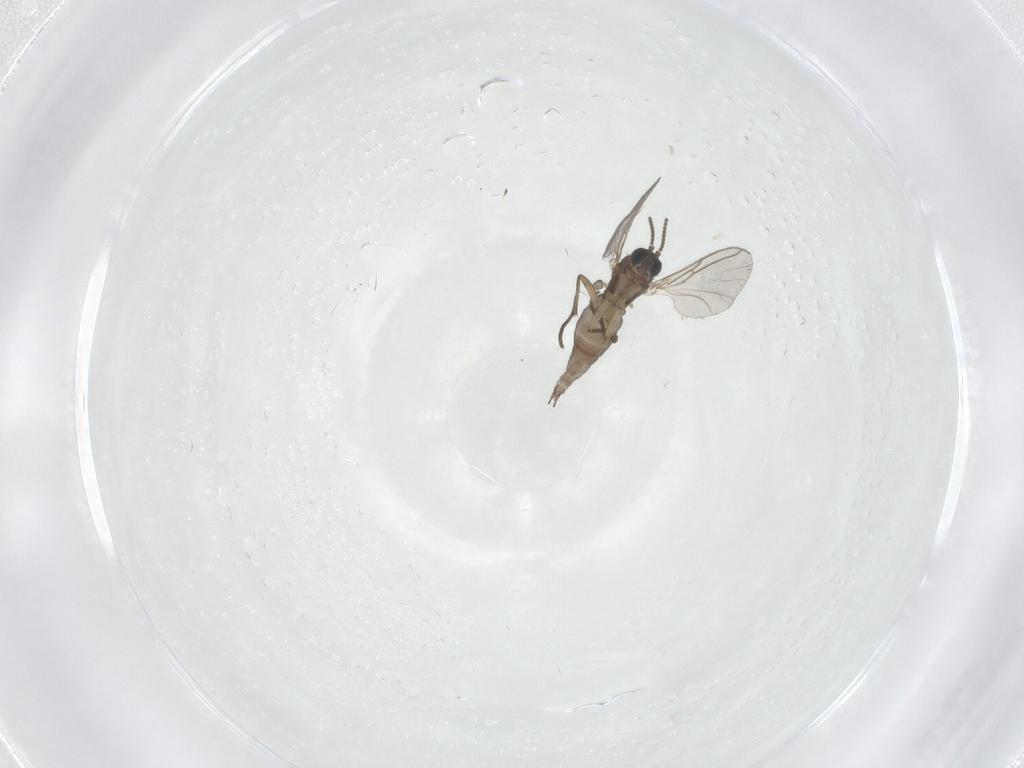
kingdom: Animalia
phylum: Arthropoda
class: Insecta
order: Diptera
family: Sciaridae
